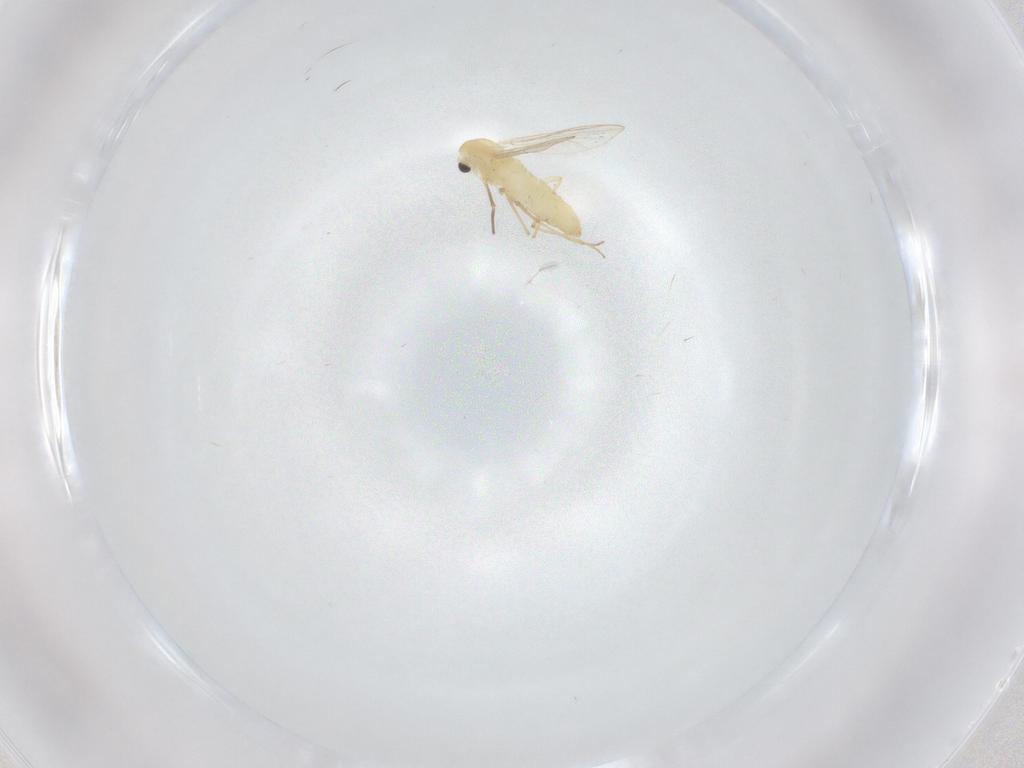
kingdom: Animalia
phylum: Arthropoda
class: Insecta
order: Diptera
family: Chironomidae
